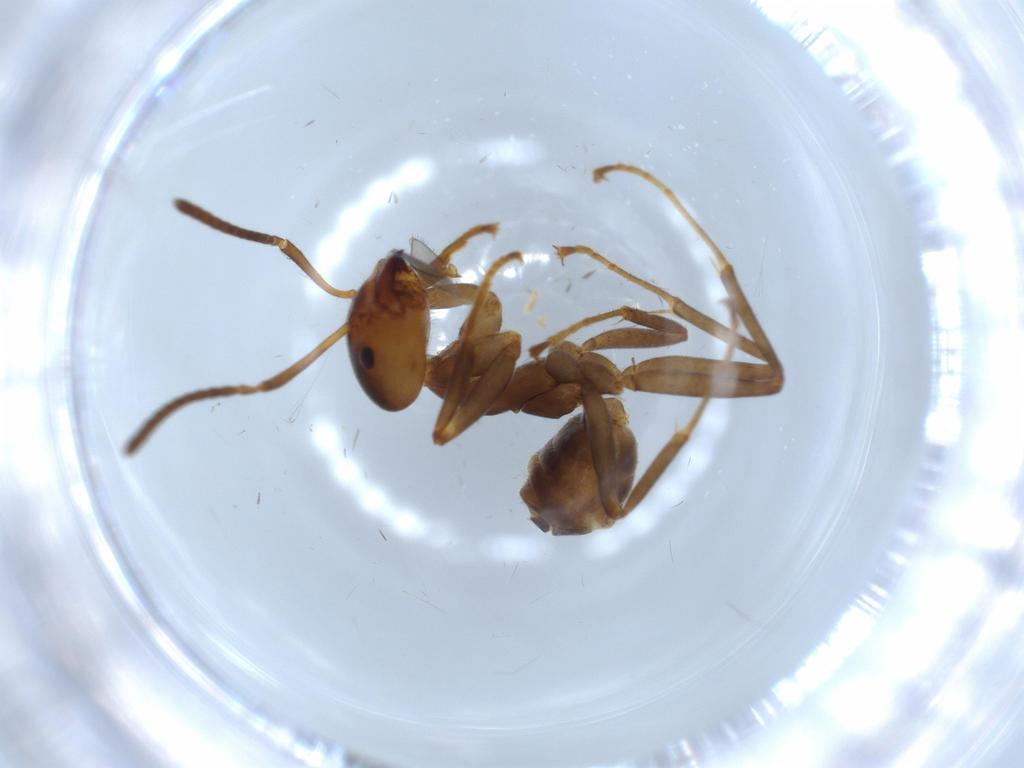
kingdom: Animalia
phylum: Arthropoda
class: Insecta
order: Hymenoptera
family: Formicidae
